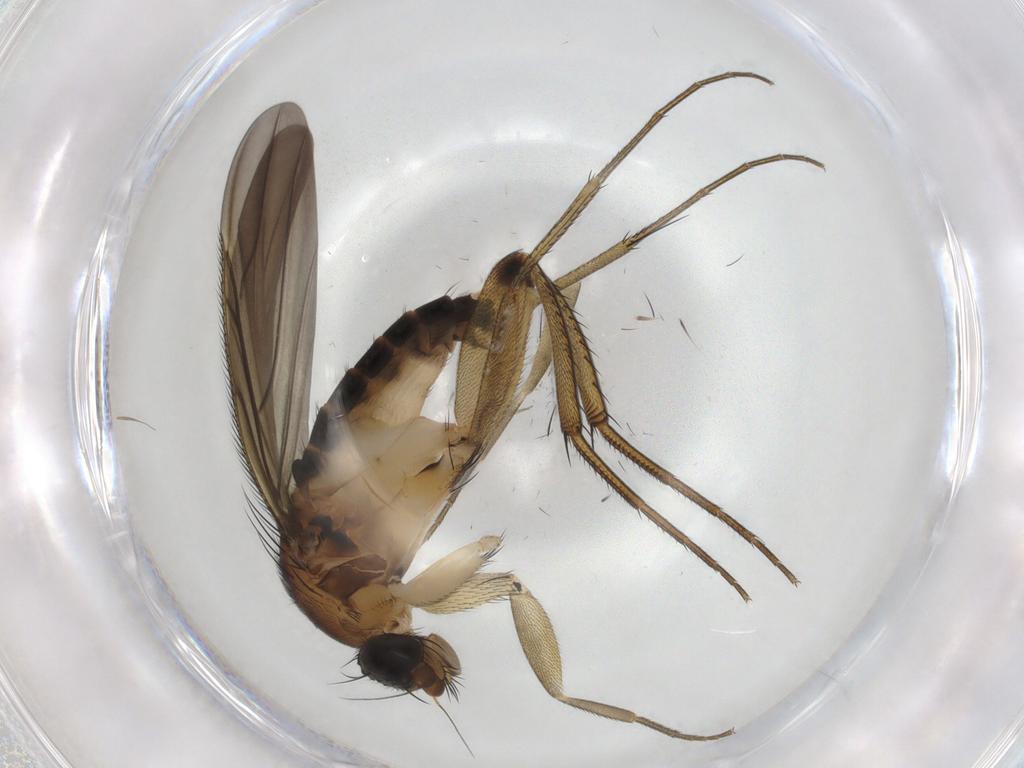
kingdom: Animalia
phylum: Arthropoda
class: Insecta
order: Diptera
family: Phoridae
